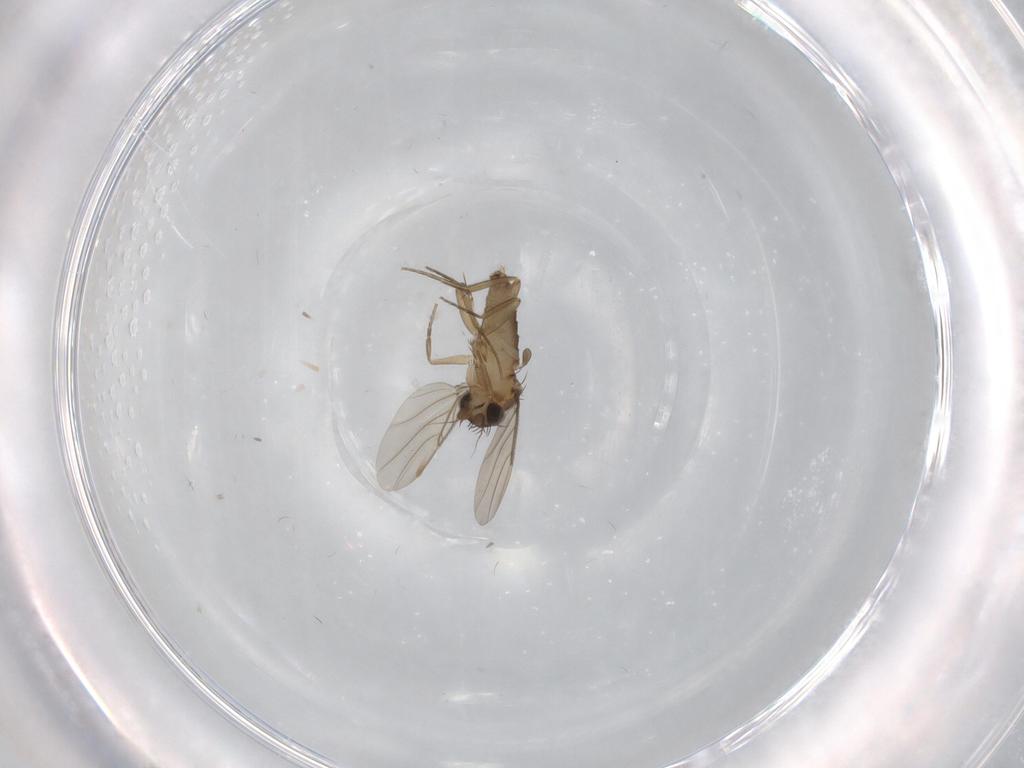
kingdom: Animalia
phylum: Arthropoda
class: Insecta
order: Diptera
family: Phoridae
